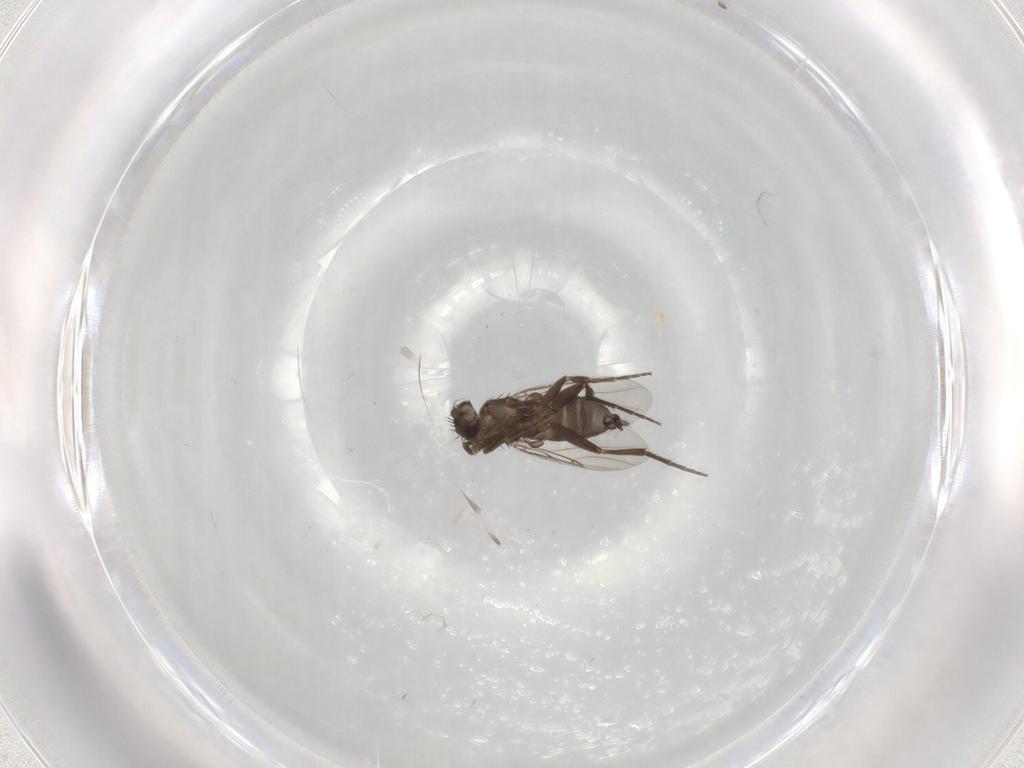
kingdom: Animalia
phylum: Arthropoda
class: Insecta
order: Diptera
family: Phoridae
